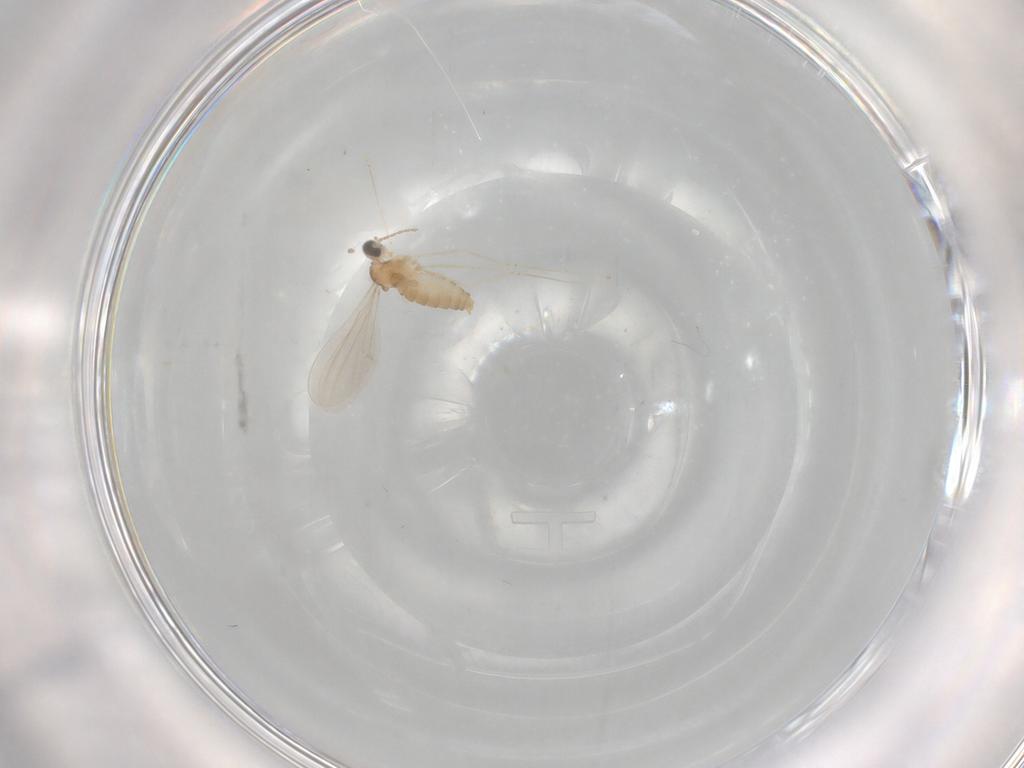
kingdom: Animalia
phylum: Arthropoda
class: Insecta
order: Diptera
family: Cecidomyiidae
